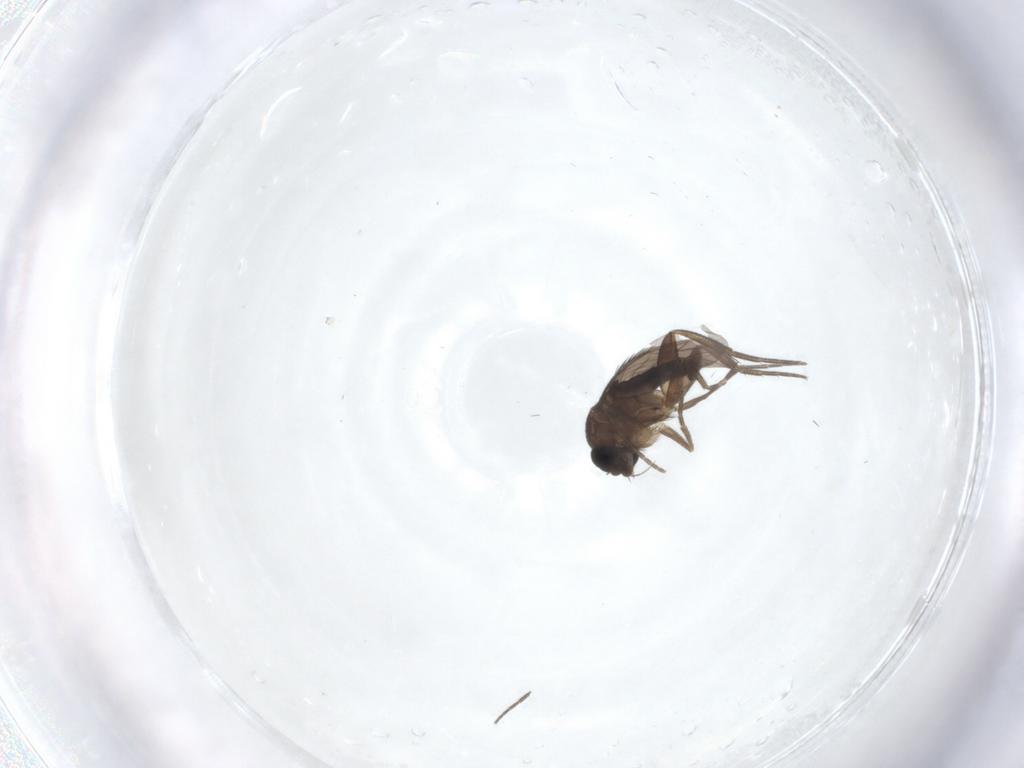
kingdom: Animalia
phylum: Arthropoda
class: Insecta
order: Diptera
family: Phoridae
